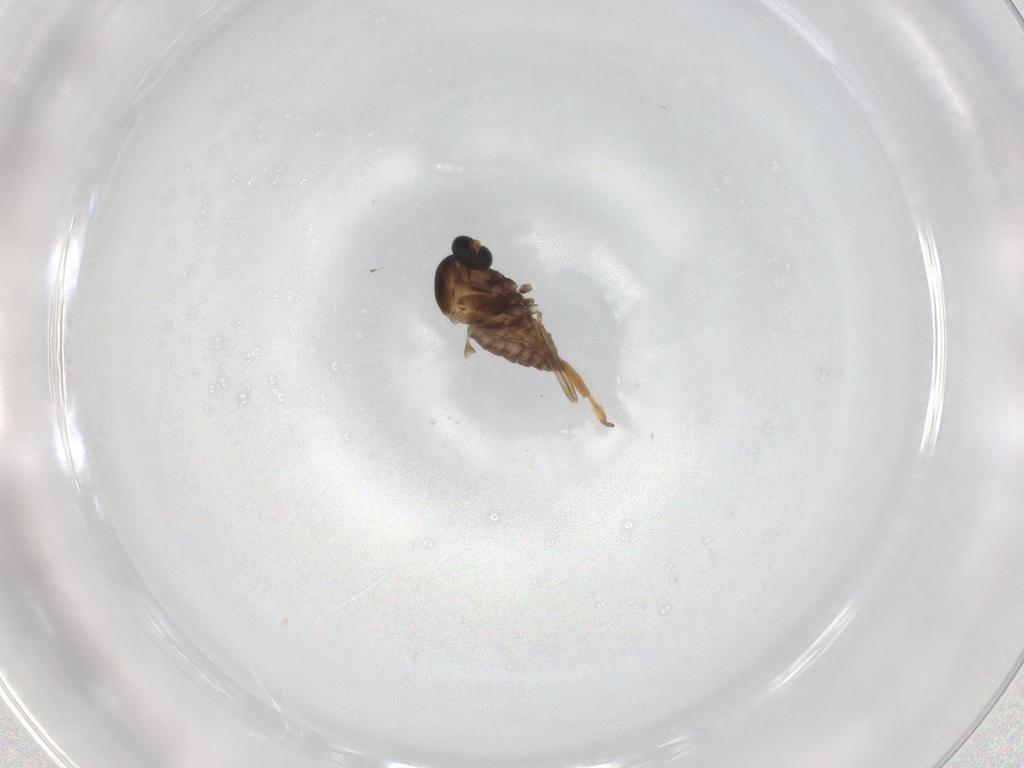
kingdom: Animalia
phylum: Arthropoda
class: Insecta
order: Diptera
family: Cecidomyiidae
